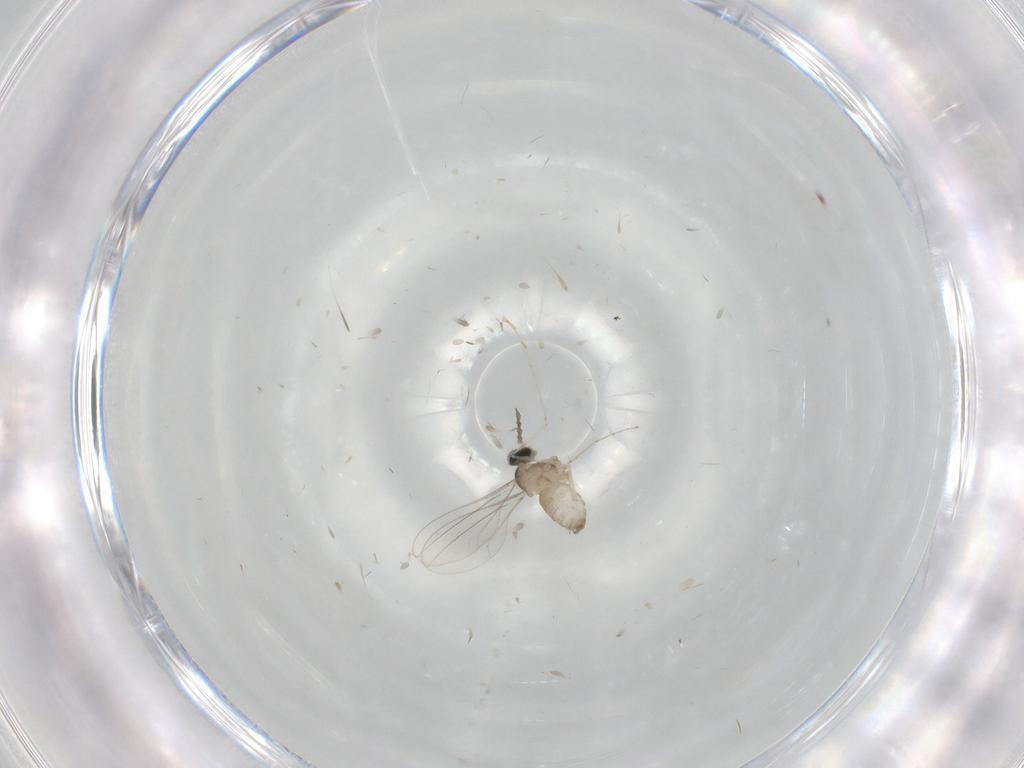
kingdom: Animalia
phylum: Arthropoda
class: Insecta
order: Diptera
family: Cecidomyiidae
